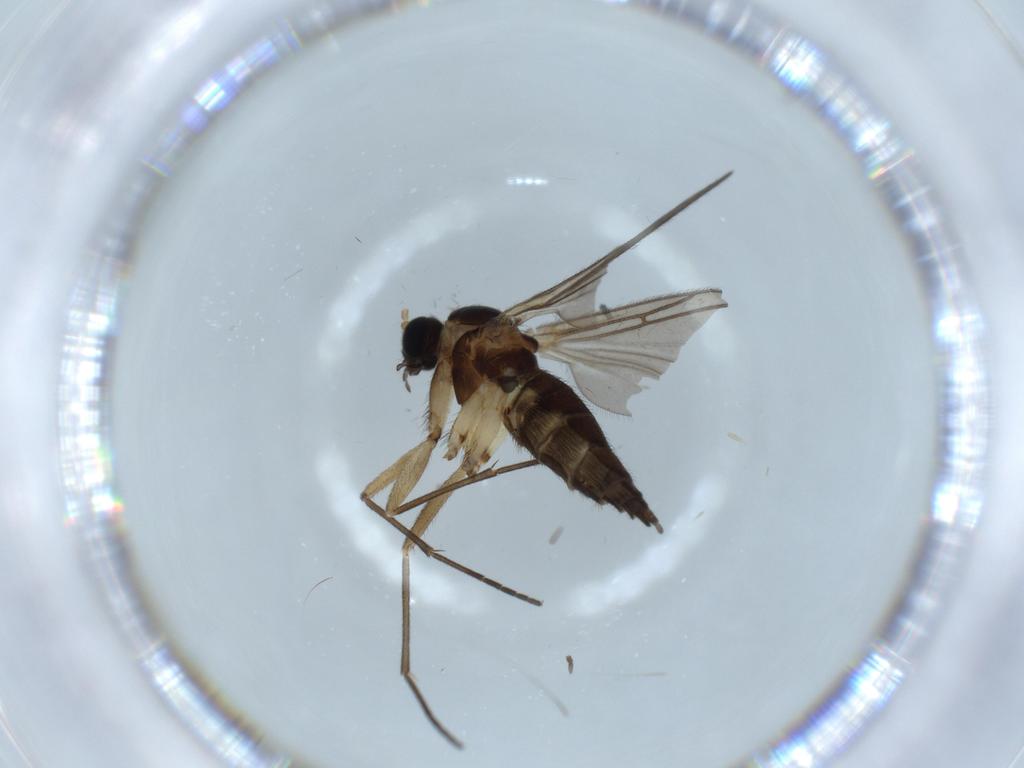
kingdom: Animalia
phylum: Arthropoda
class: Insecta
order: Diptera
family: Sciaridae
